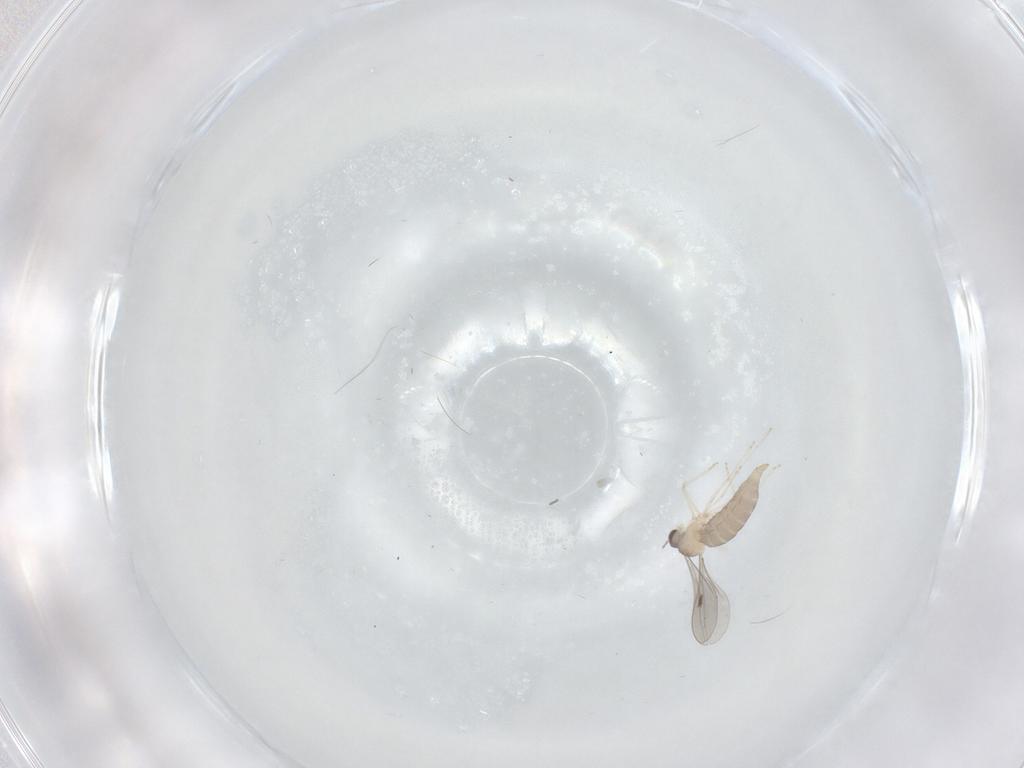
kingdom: Animalia
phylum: Arthropoda
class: Insecta
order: Diptera
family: Drosophilidae
